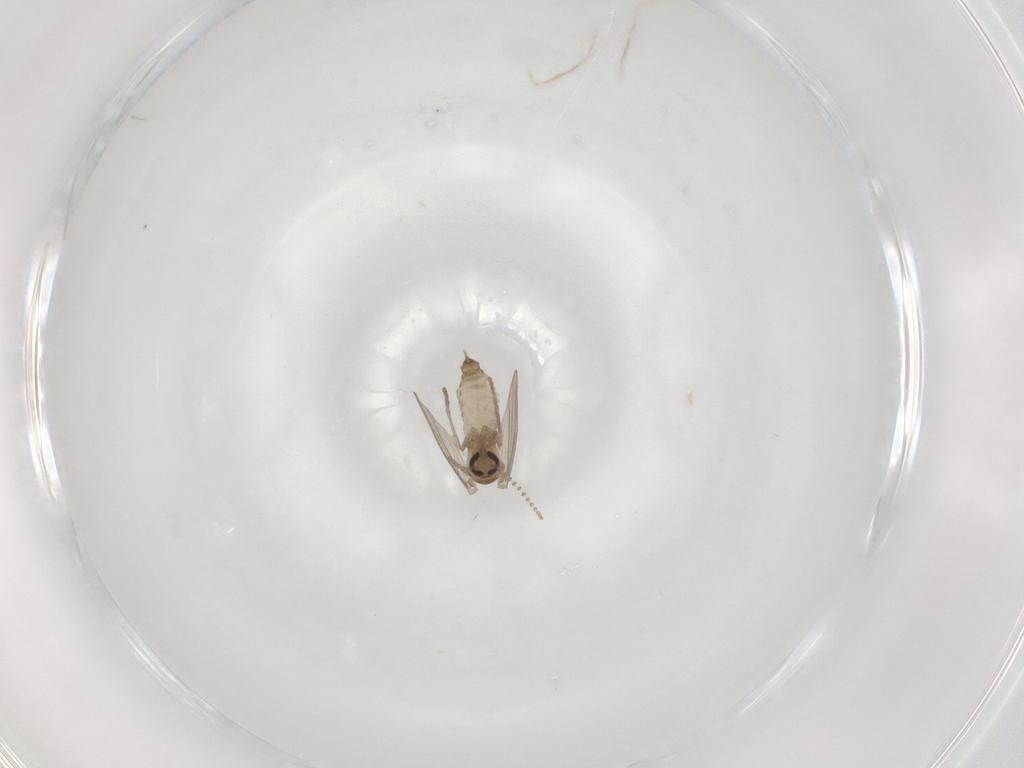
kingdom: Animalia
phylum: Arthropoda
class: Insecta
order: Diptera
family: Psychodidae
